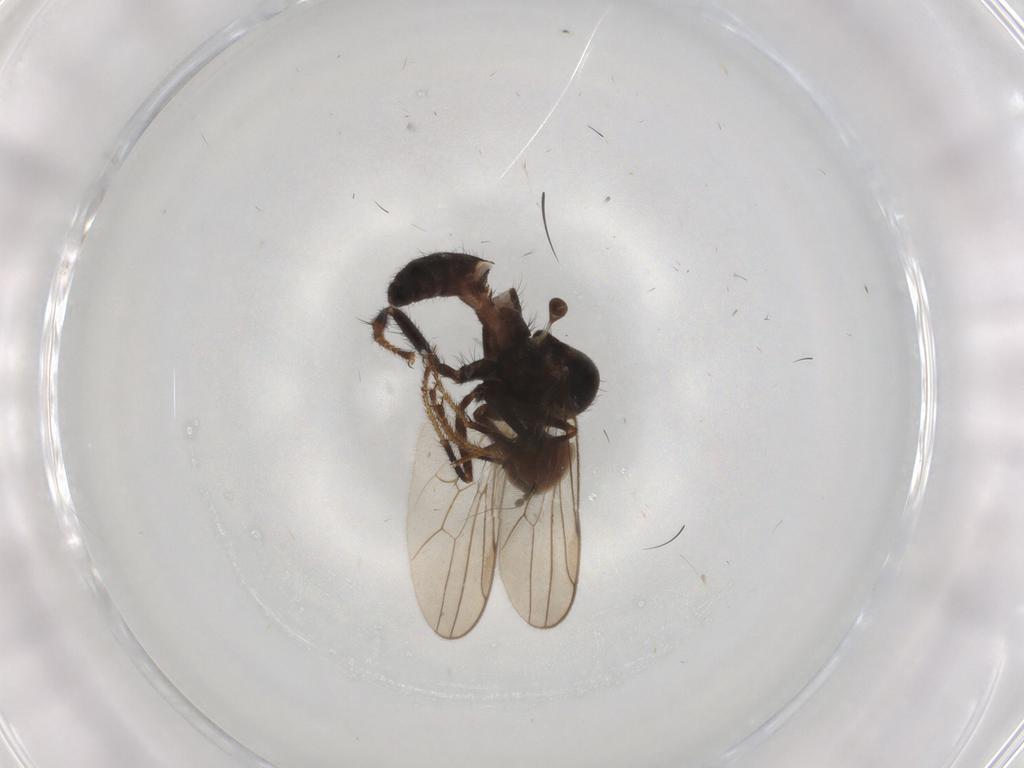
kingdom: Animalia
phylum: Arthropoda
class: Insecta
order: Diptera
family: Hybotidae
